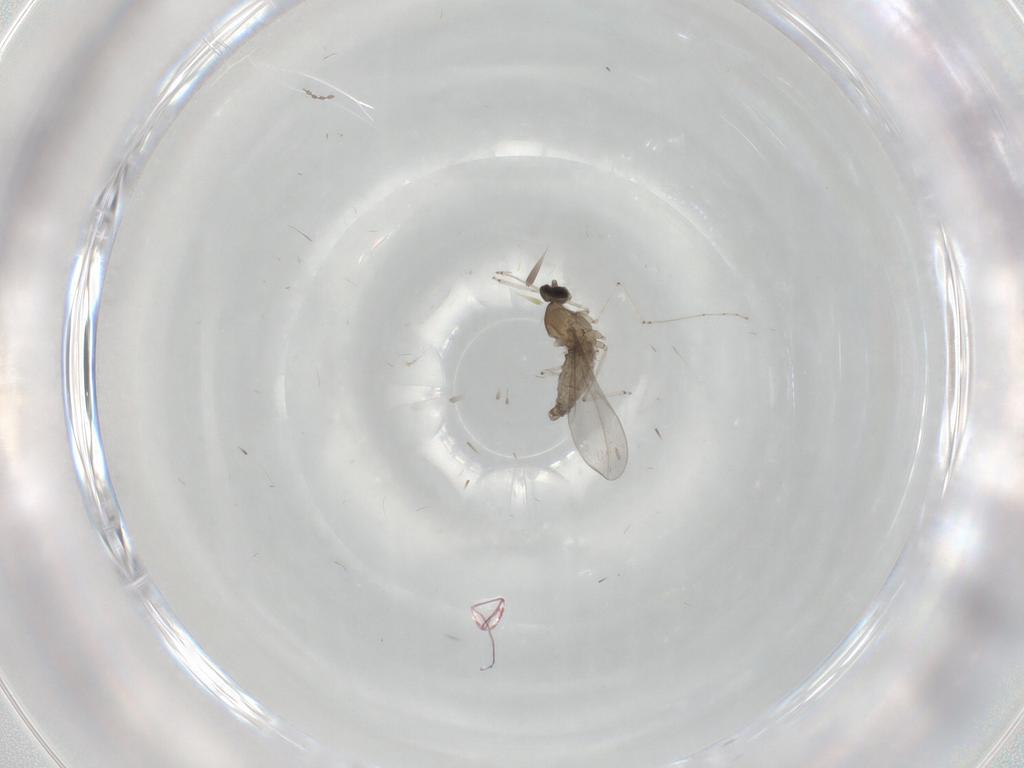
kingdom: Animalia
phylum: Arthropoda
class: Insecta
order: Diptera
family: Cecidomyiidae
